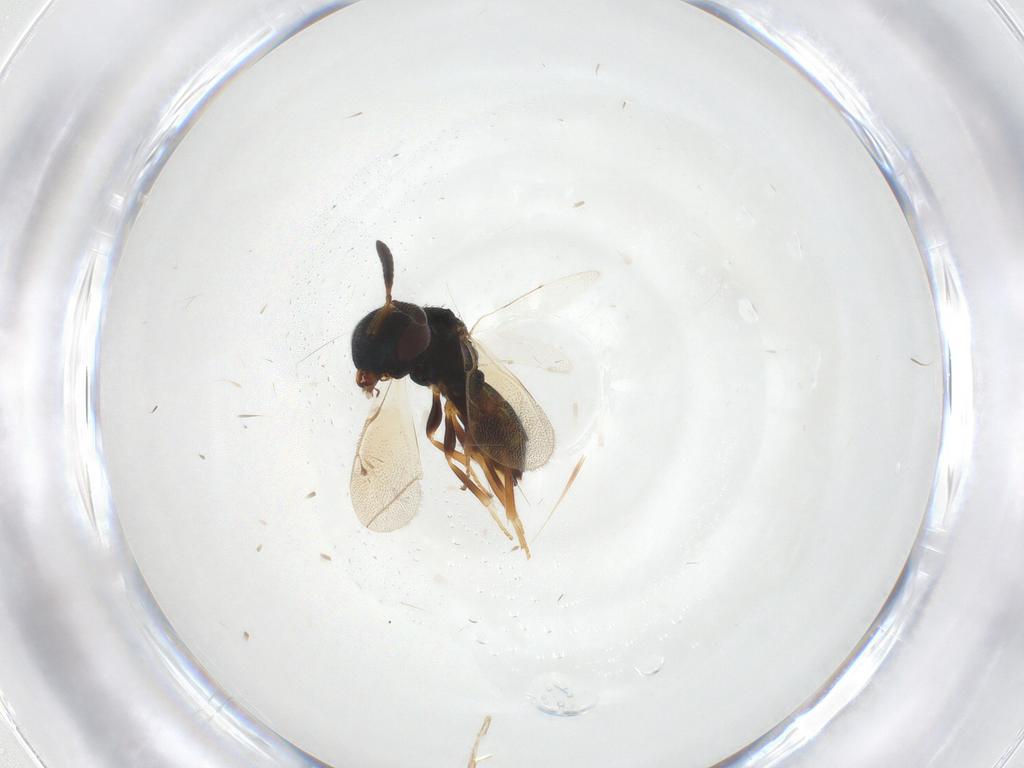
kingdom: Animalia
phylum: Arthropoda
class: Insecta
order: Hymenoptera
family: Pteromalidae
